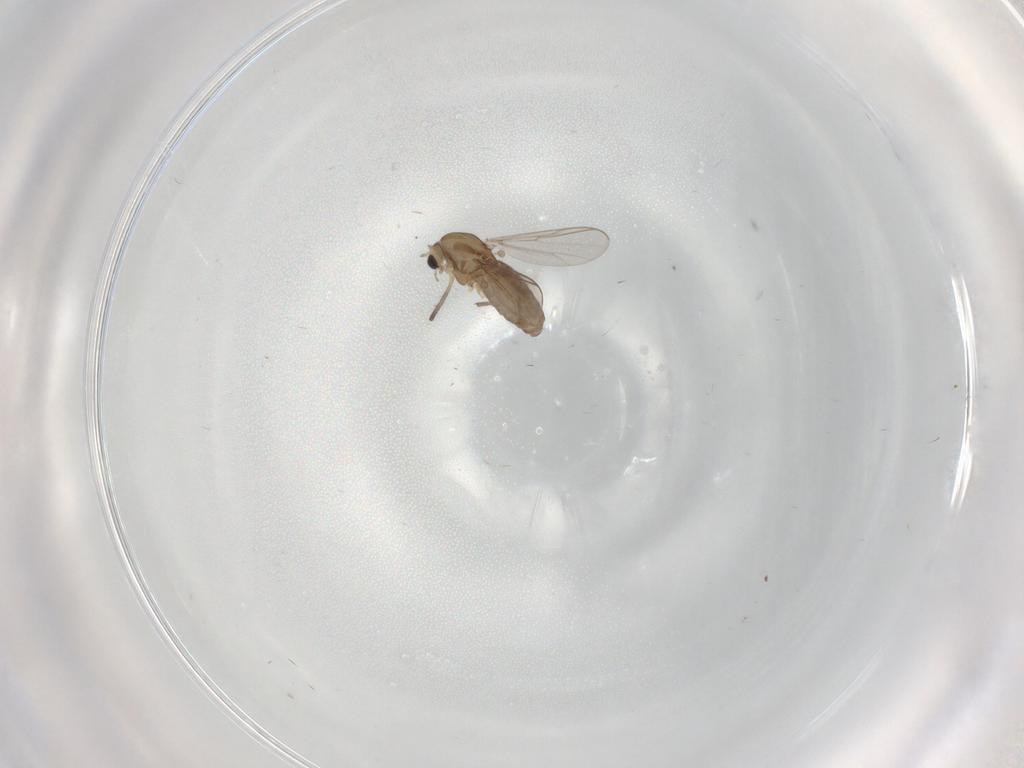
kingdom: Animalia
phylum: Arthropoda
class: Insecta
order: Diptera
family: Chironomidae
